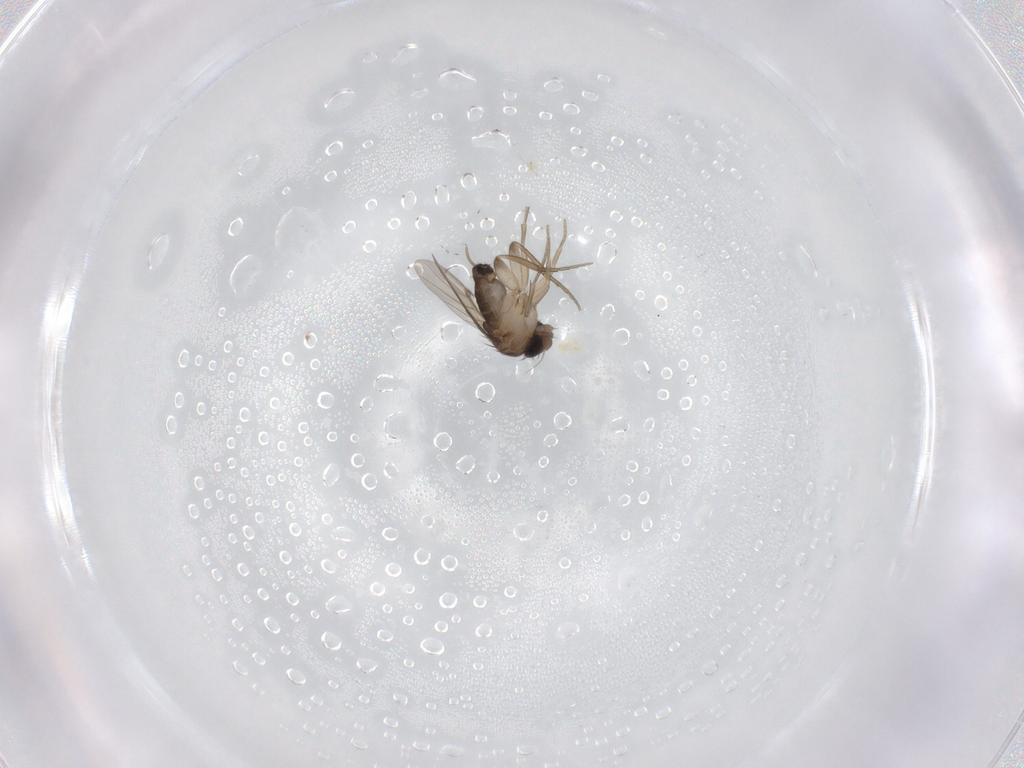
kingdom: Animalia
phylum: Arthropoda
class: Insecta
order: Diptera
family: Phoridae
